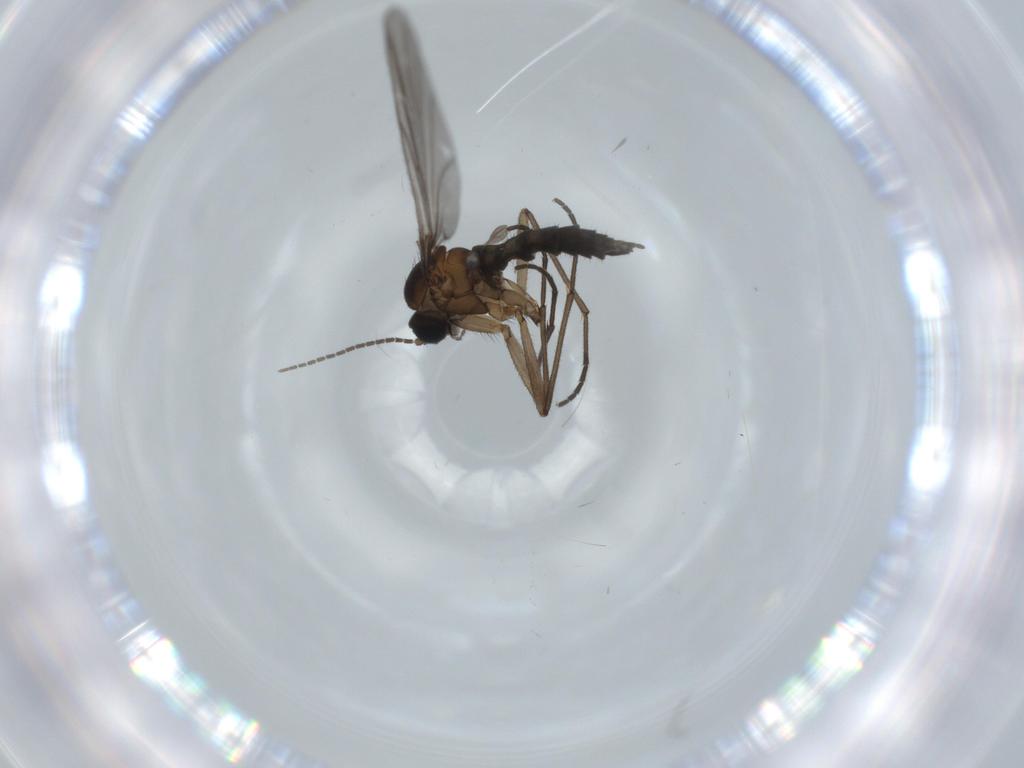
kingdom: Animalia
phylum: Arthropoda
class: Insecta
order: Diptera
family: Sciaridae
